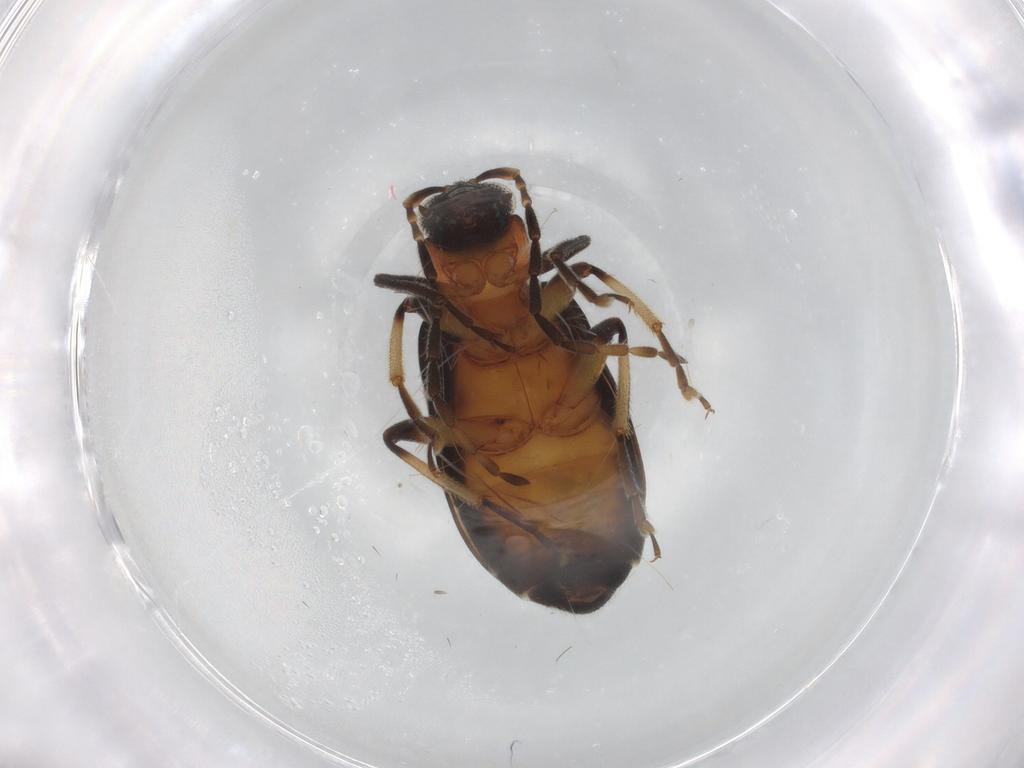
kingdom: Animalia
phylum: Arthropoda
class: Insecta
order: Coleoptera
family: Chrysomelidae
